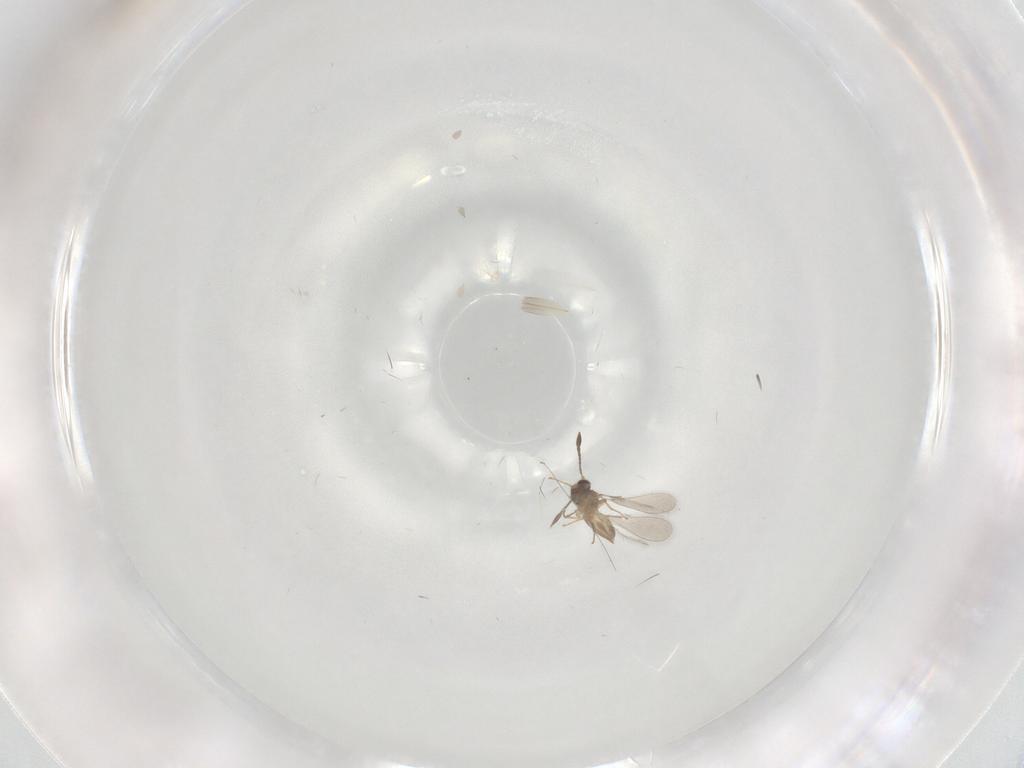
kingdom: Animalia
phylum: Arthropoda
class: Insecta
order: Hymenoptera
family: Mymaridae
